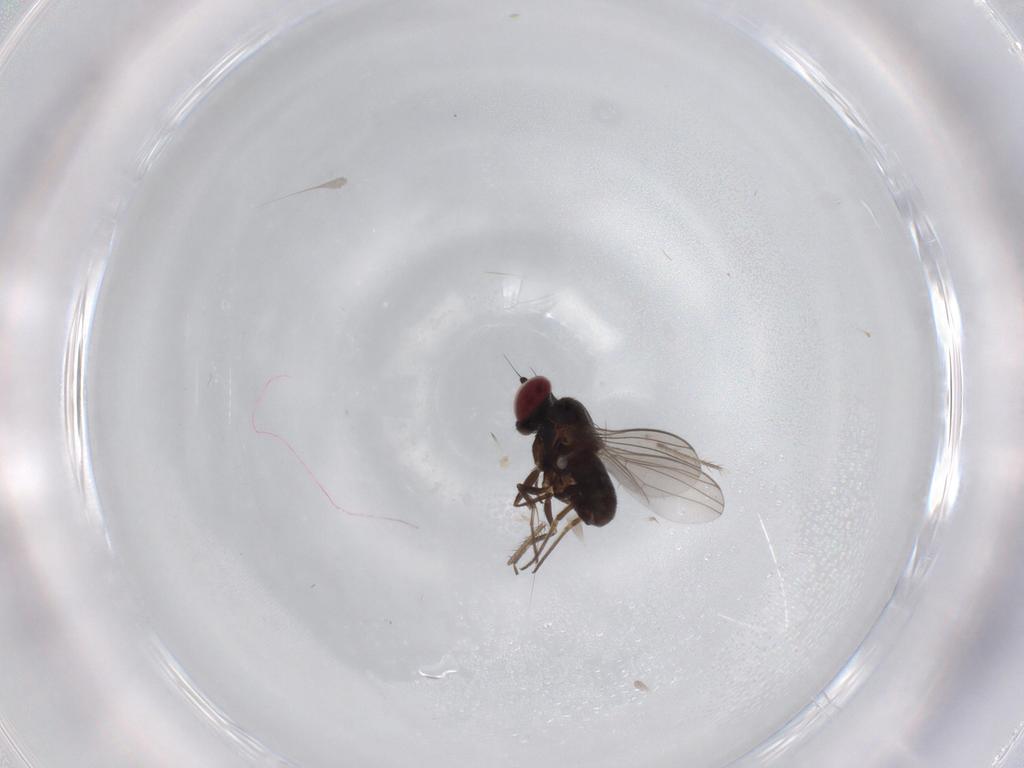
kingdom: Animalia
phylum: Arthropoda
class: Insecta
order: Diptera
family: Dolichopodidae
